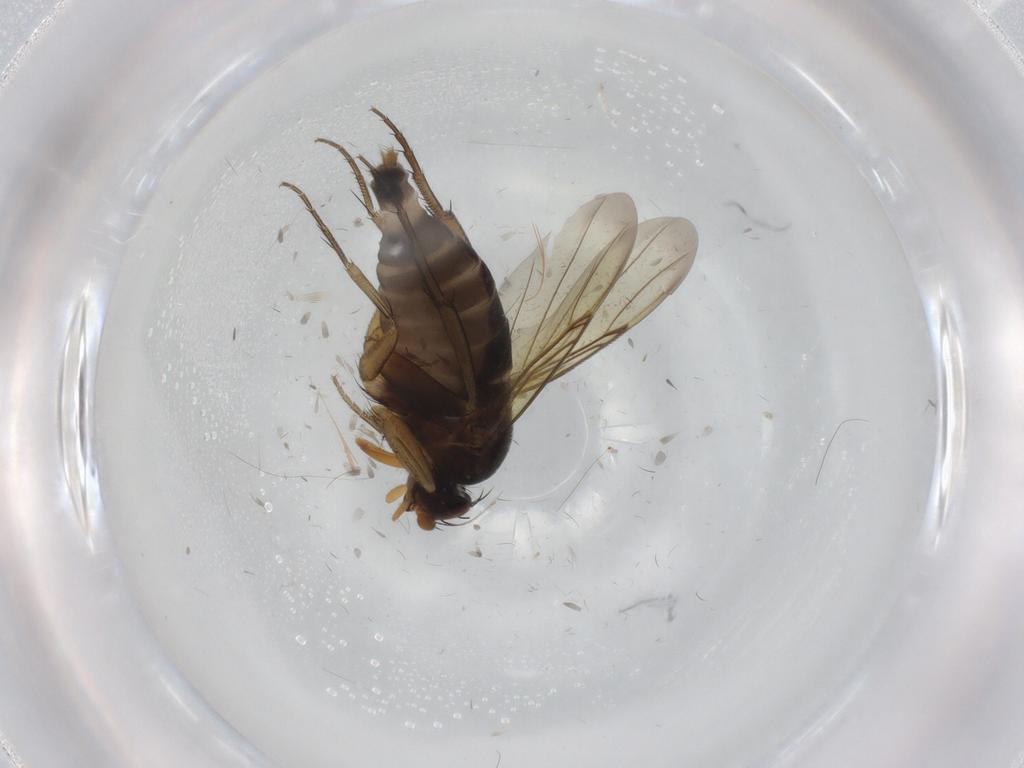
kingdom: Animalia
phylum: Arthropoda
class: Insecta
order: Diptera
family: Phoridae
